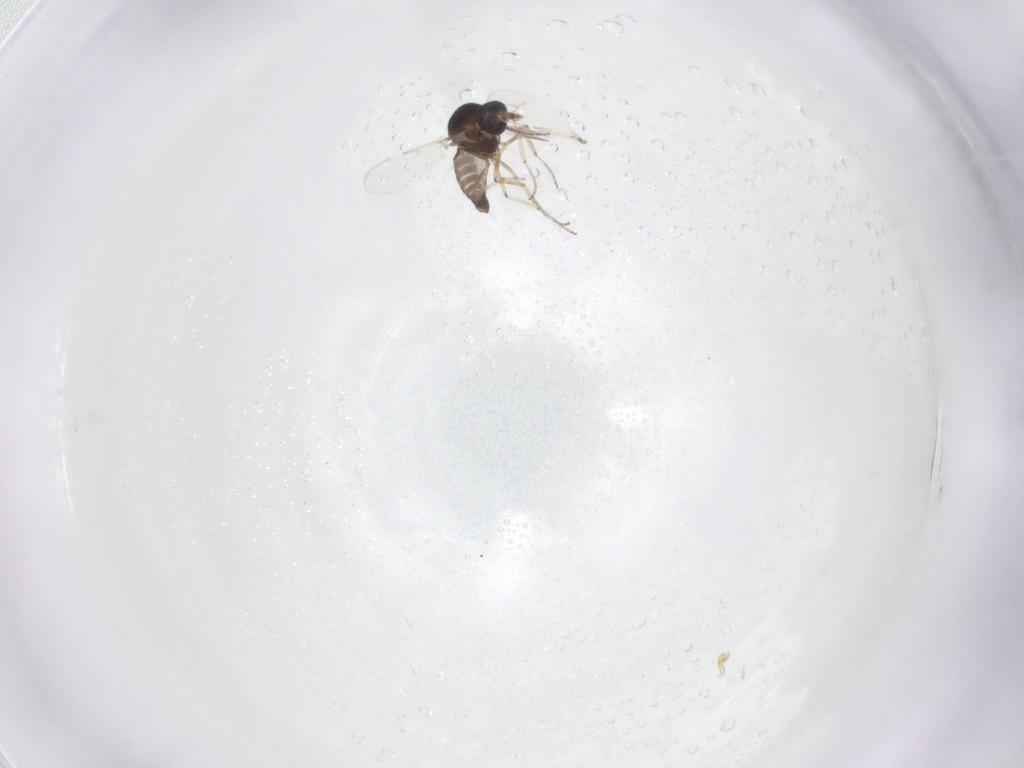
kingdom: Animalia
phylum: Arthropoda
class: Insecta
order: Diptera
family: Ceratopogonidae
